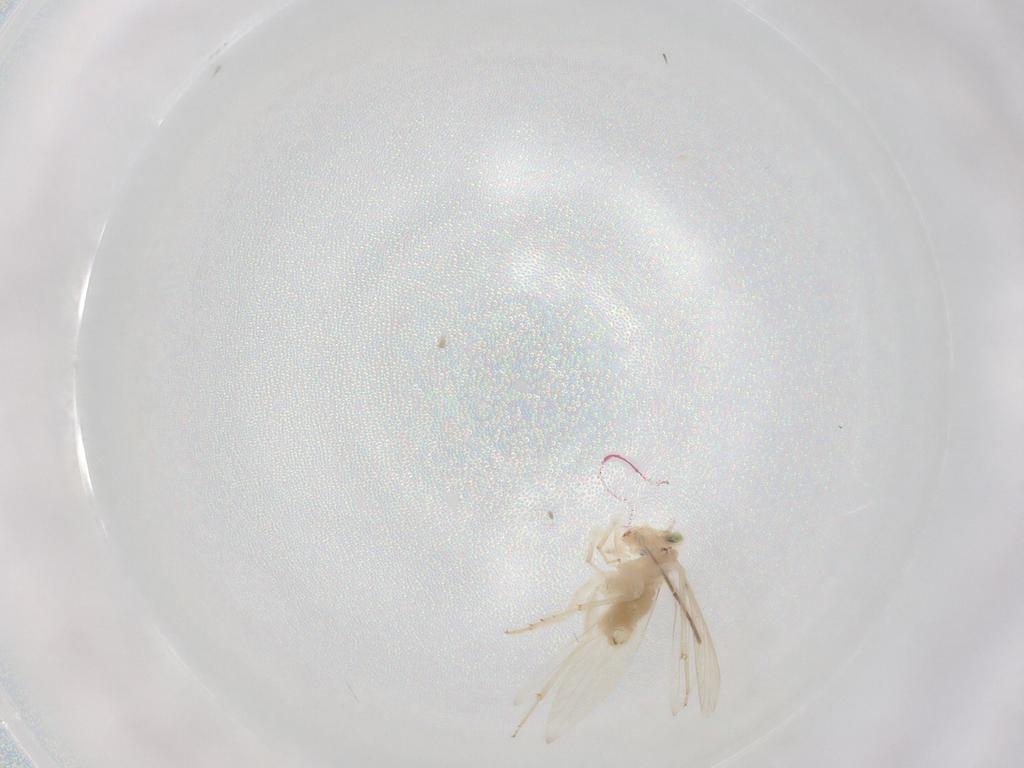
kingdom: Animalia
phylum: Arthropoda
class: Insecta
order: Psocodea
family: Lepidopsocidae
